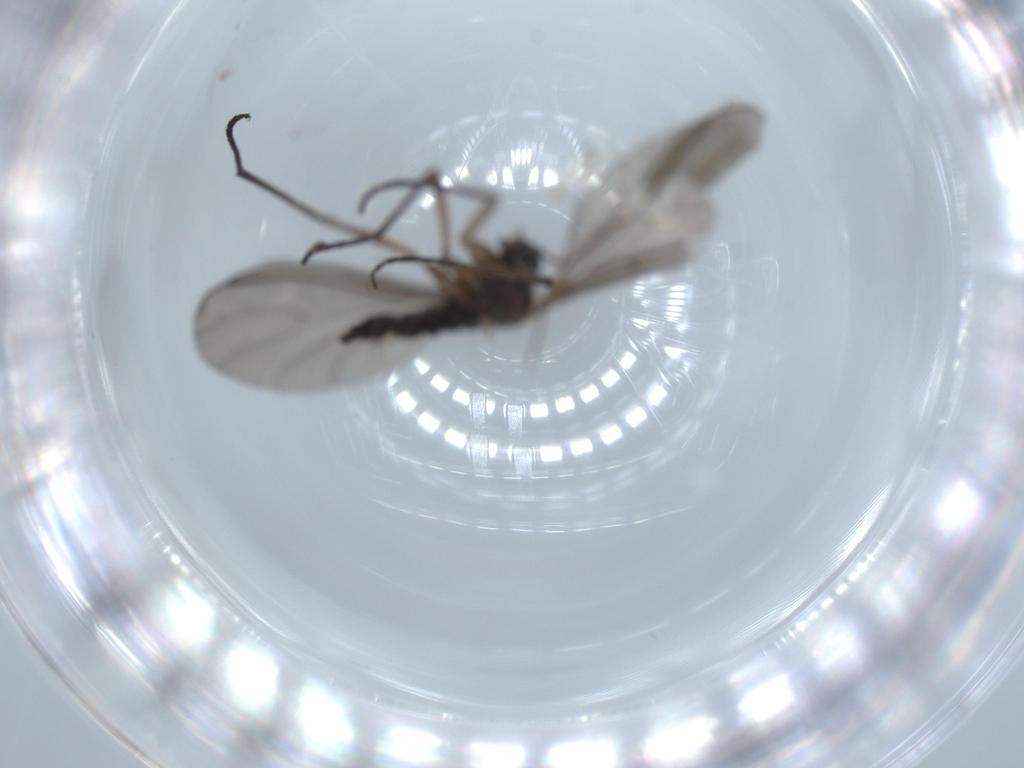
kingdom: Animalia
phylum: Arthropoda
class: Insecta
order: Diptera
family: Sciaridae
